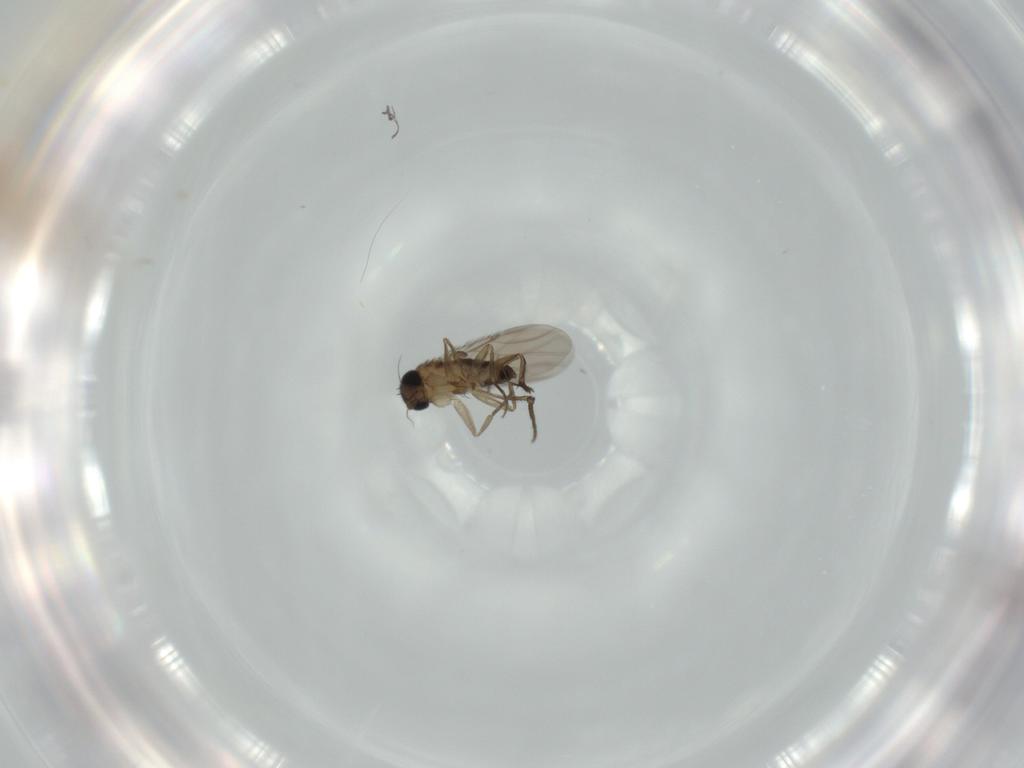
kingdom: Animalia
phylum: Arthropoda
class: Insecta
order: Diptera
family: Phoridae
